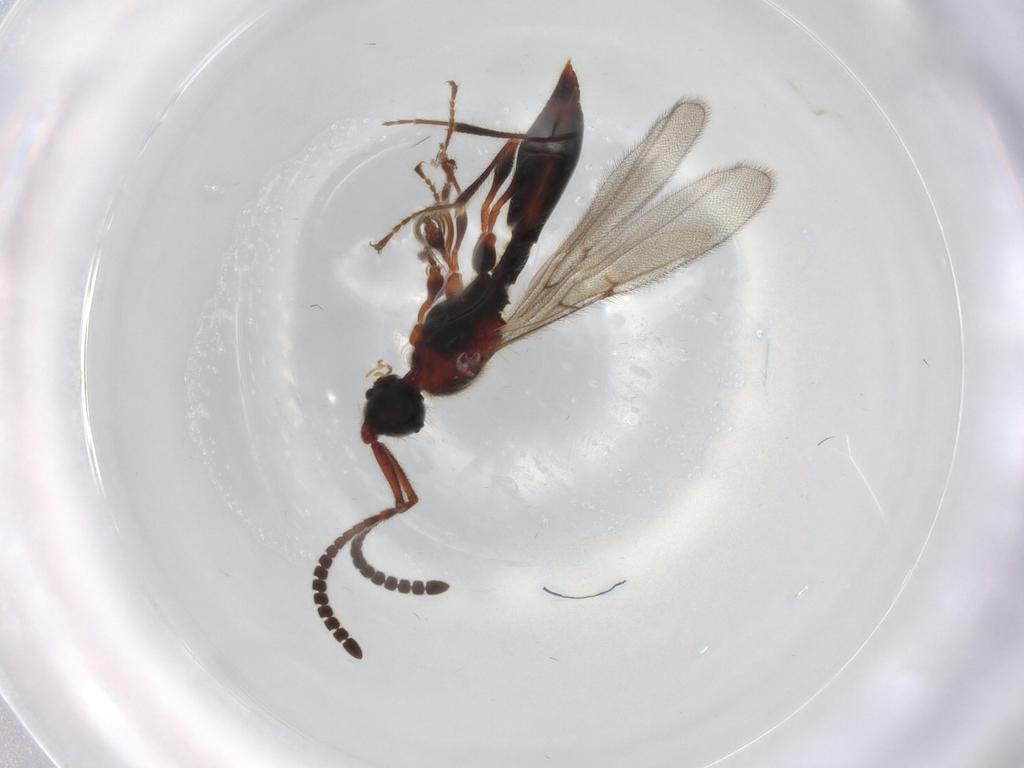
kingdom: Animalia
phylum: Arthropoda
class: Insecta
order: Hymenoptera
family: Diapriidae
